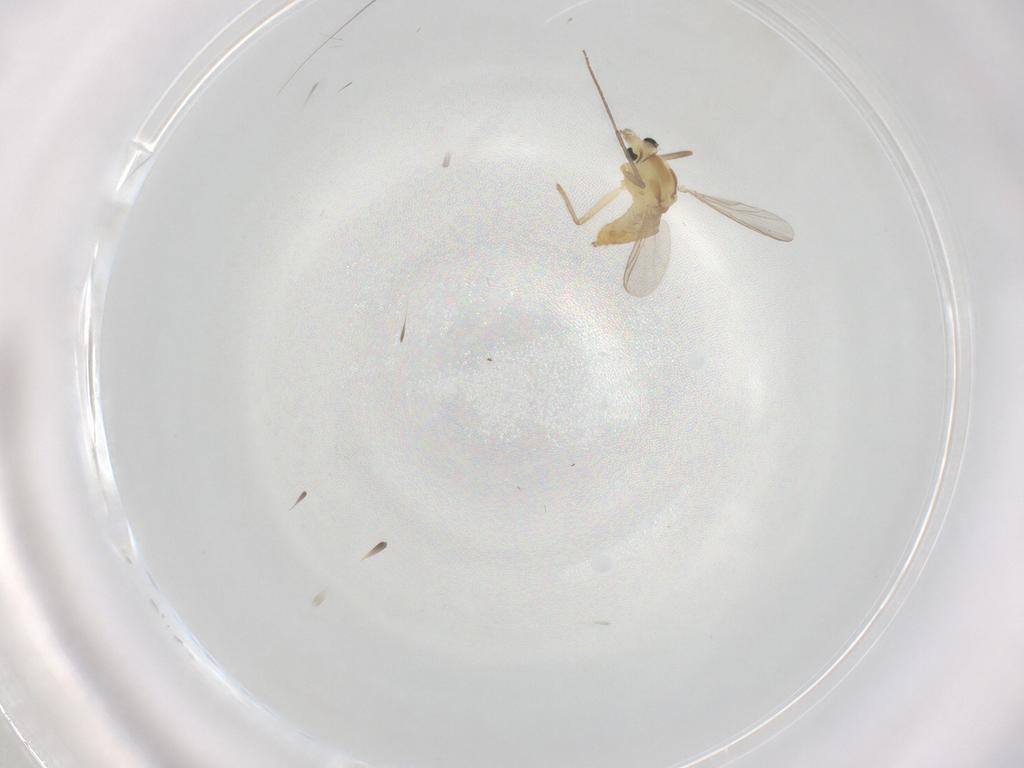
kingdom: Animalia
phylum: Arthropoda
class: Insecta
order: Diptera
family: Chironomidae
